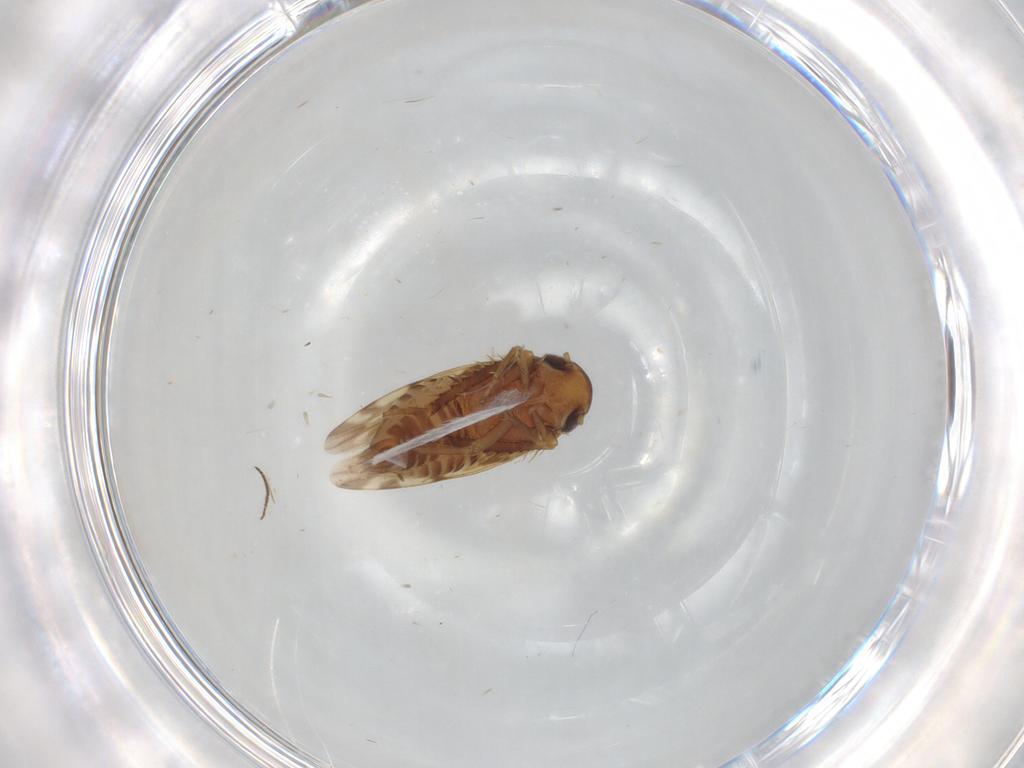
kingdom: Animalia
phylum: Arthropoda
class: Insecta
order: Hemiptera
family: Cicadellidae
